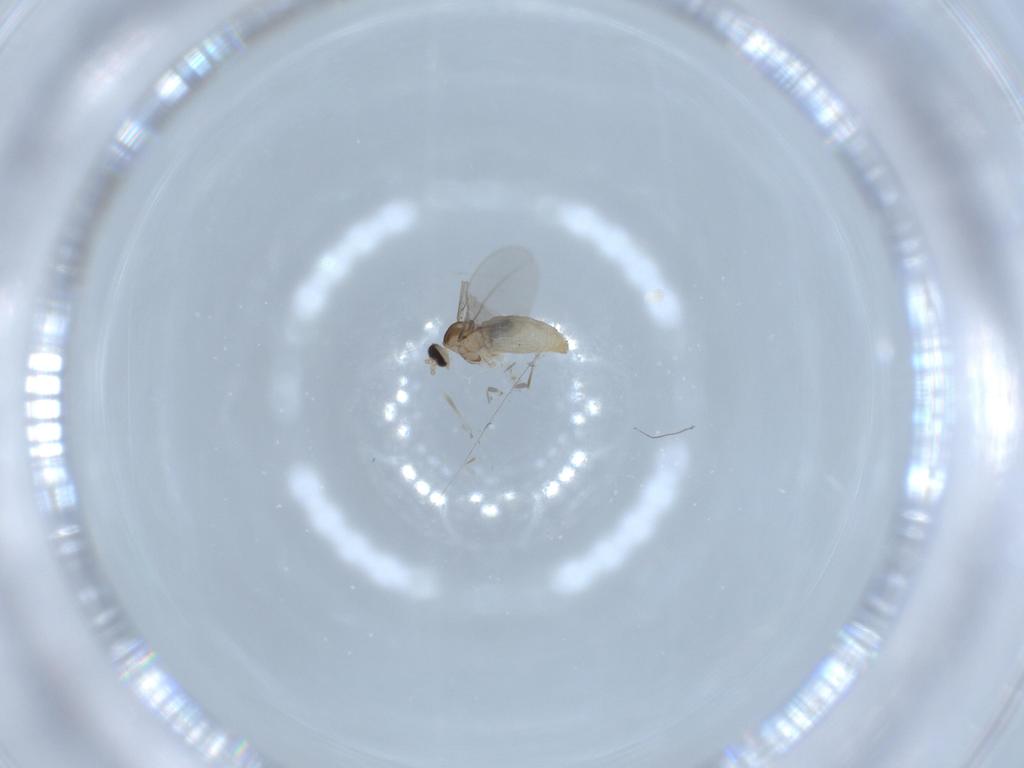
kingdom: Animalia
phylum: Arthropoda
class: Insecta
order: Diptera
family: Cecidomyiidae
